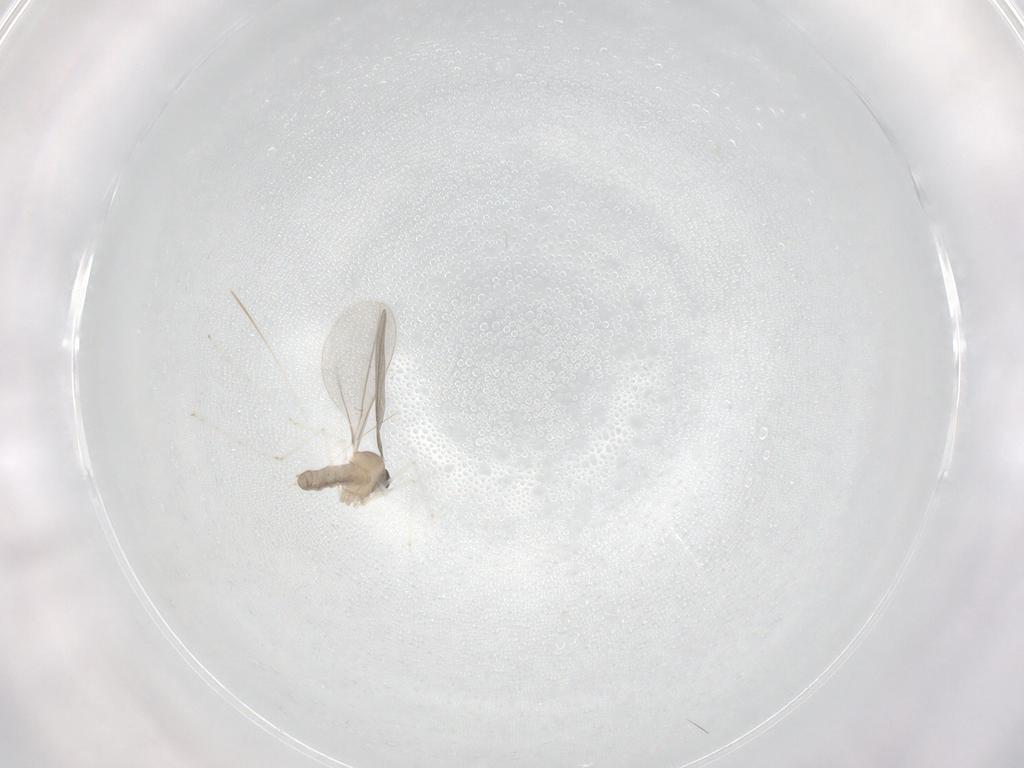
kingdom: Animalia
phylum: Arthropoda
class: Insecta
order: Diptera
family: Cecidomyiidae
